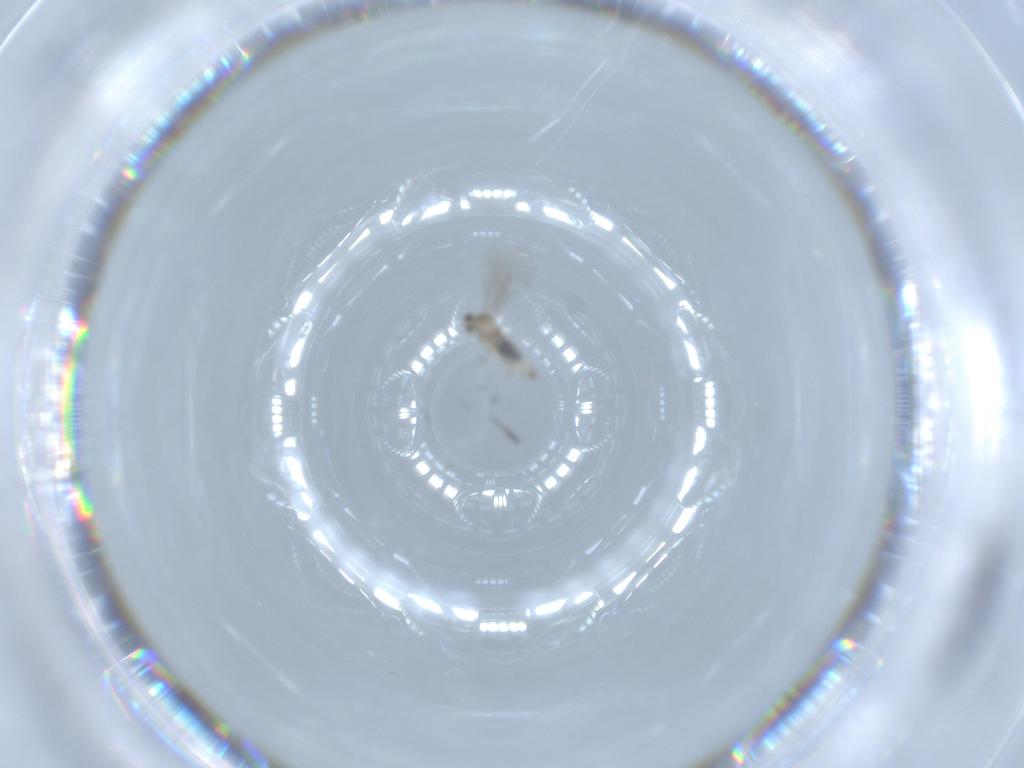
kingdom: Animalia
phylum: Arthropoda
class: Insecta
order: Diptera
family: Cecidomyiidae
